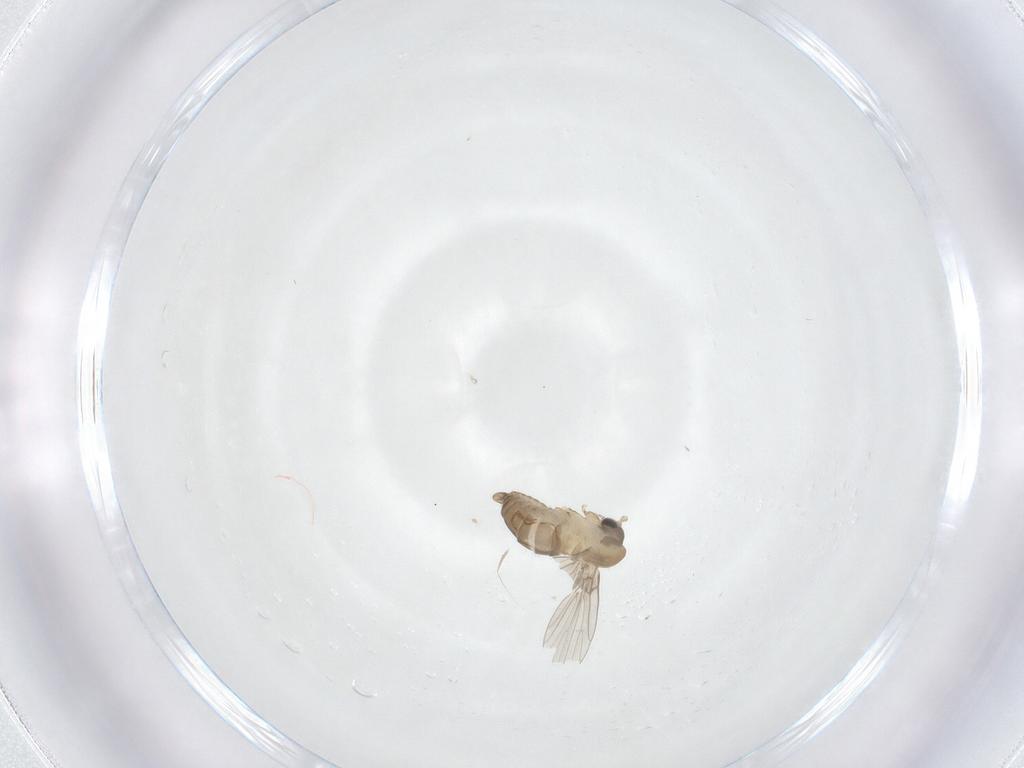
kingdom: Animalia
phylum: Arthropoda
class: Insecta
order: Diptera
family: Psychodidae
